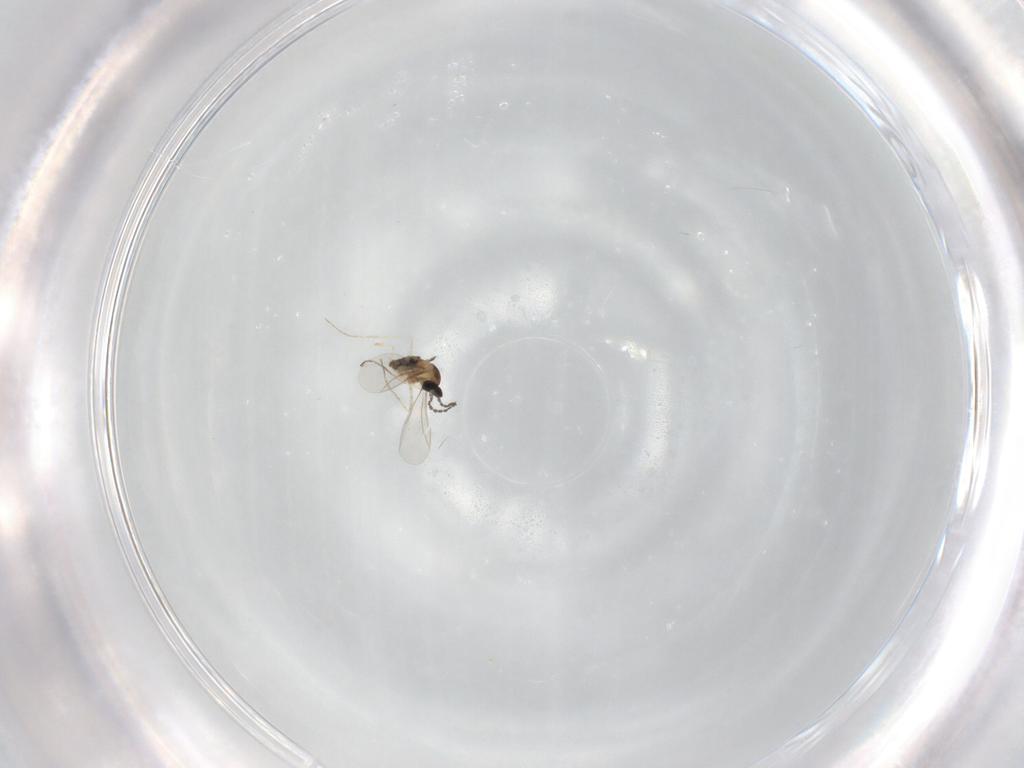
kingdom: Animalia
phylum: Arthropoda
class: Insecta
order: Diptera
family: Cecidomyiidae
